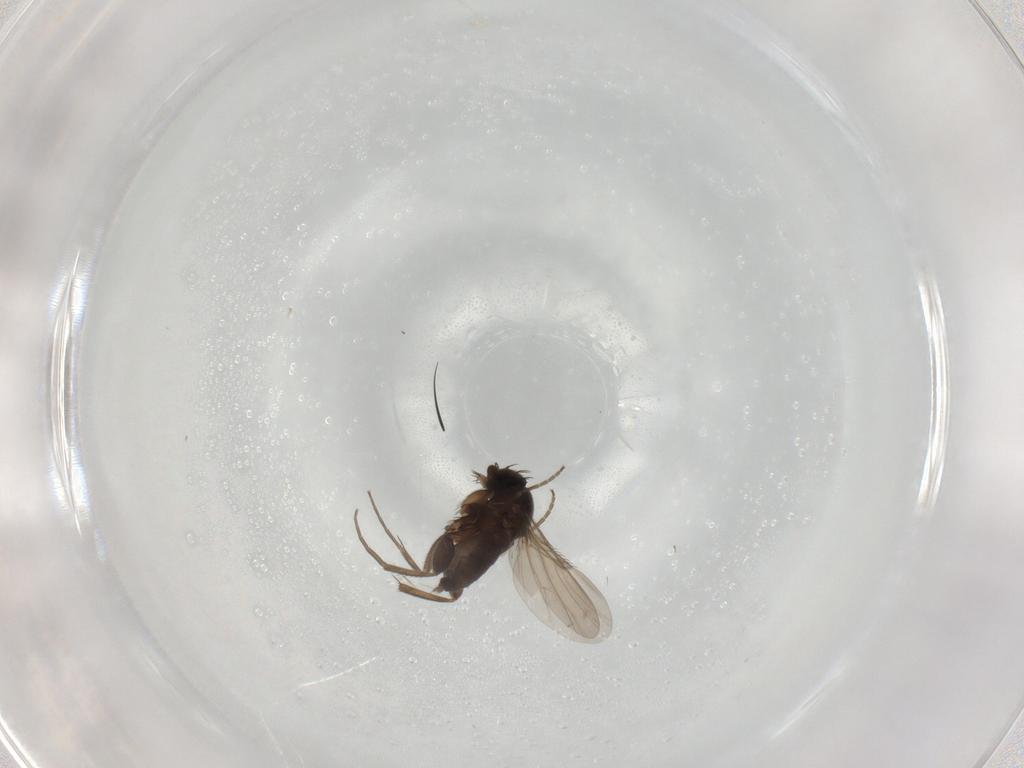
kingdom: Animalia
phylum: Arthropoda
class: Insecta
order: Diptera
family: Phoridae
